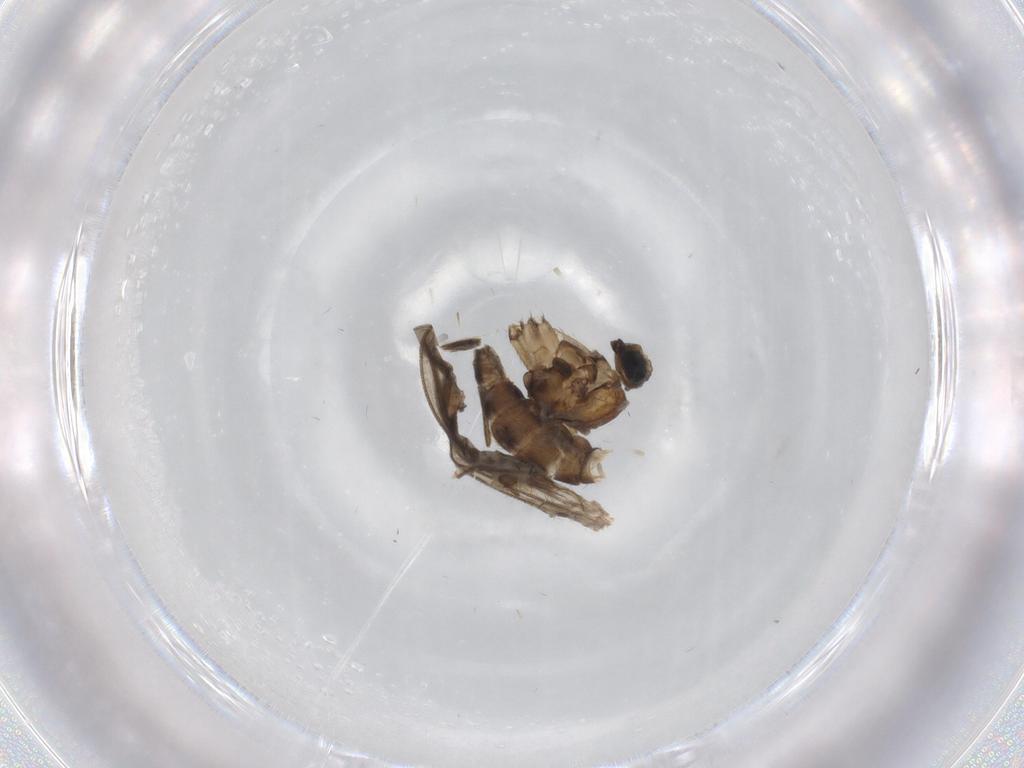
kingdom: Animalia
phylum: Arthropoda
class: Insecta
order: Diptera
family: Sciaridae
